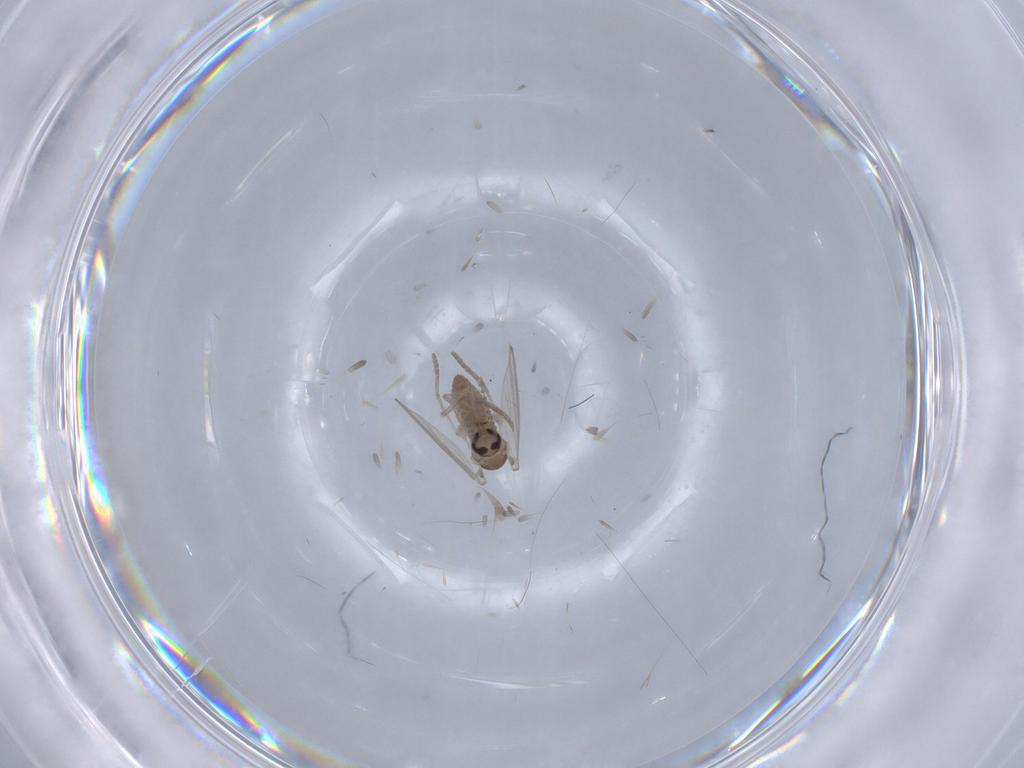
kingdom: Animalia
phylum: Arthropoda
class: Insecta
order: Diptera
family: Psychodidae
